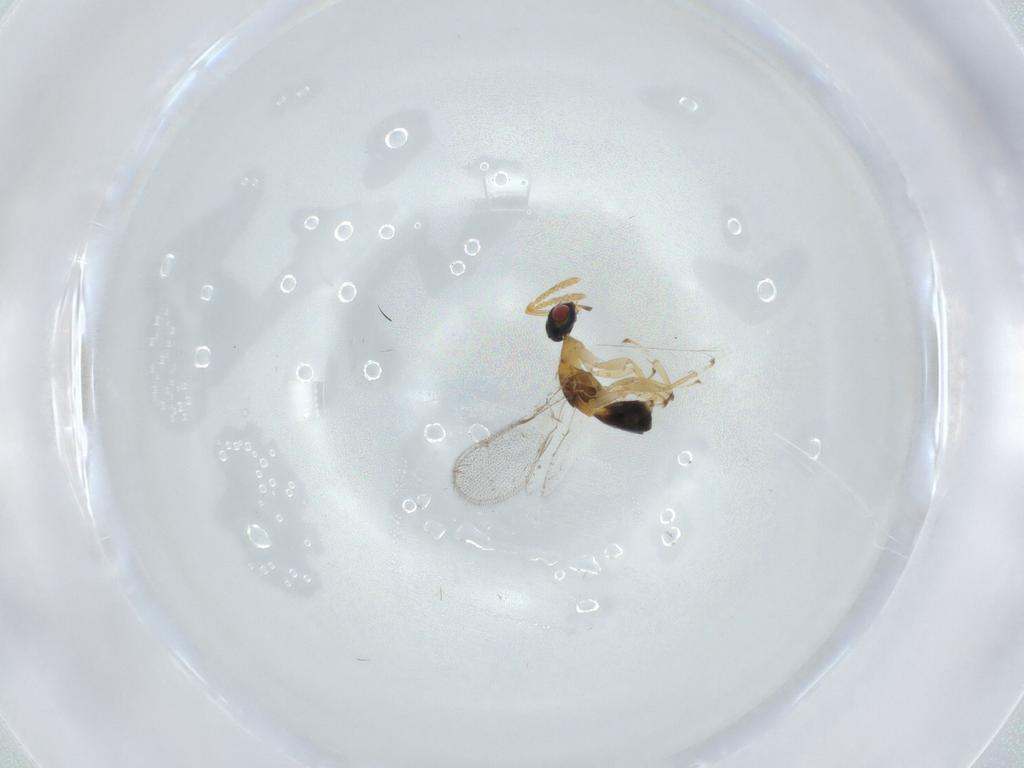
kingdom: Animalia
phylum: Arthropoda
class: Insecta
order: Hymenoptera
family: Torymidae
